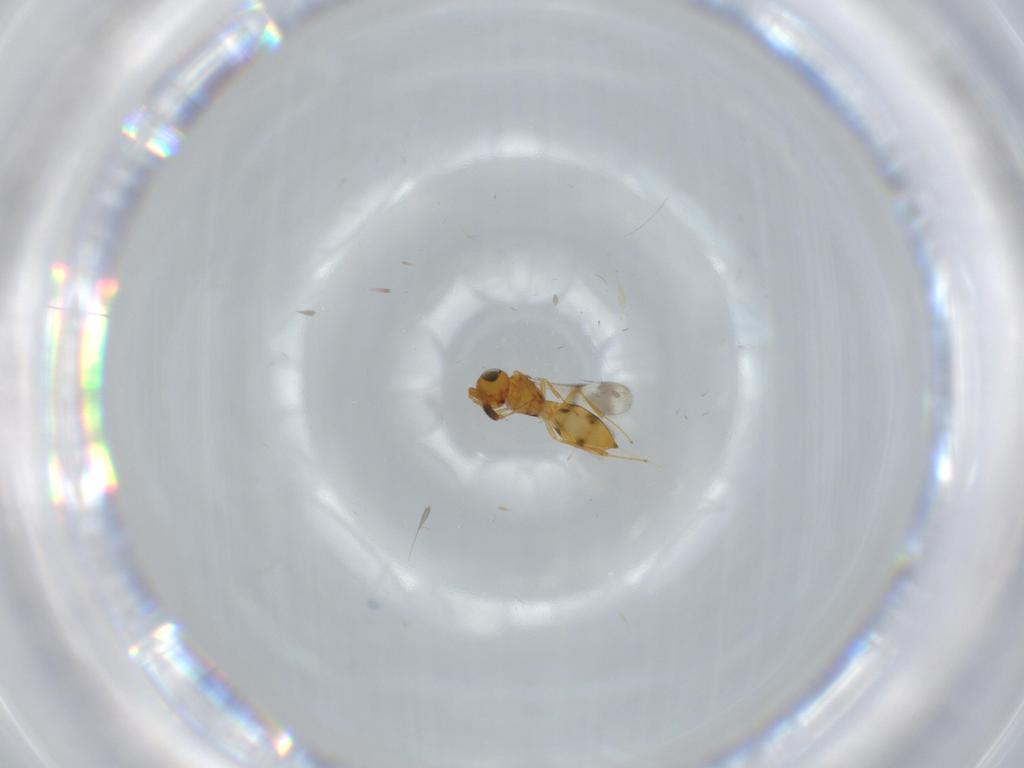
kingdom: Animalia
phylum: Arthropoda
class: Insecta
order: Hymenoptera
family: Scelionidae
